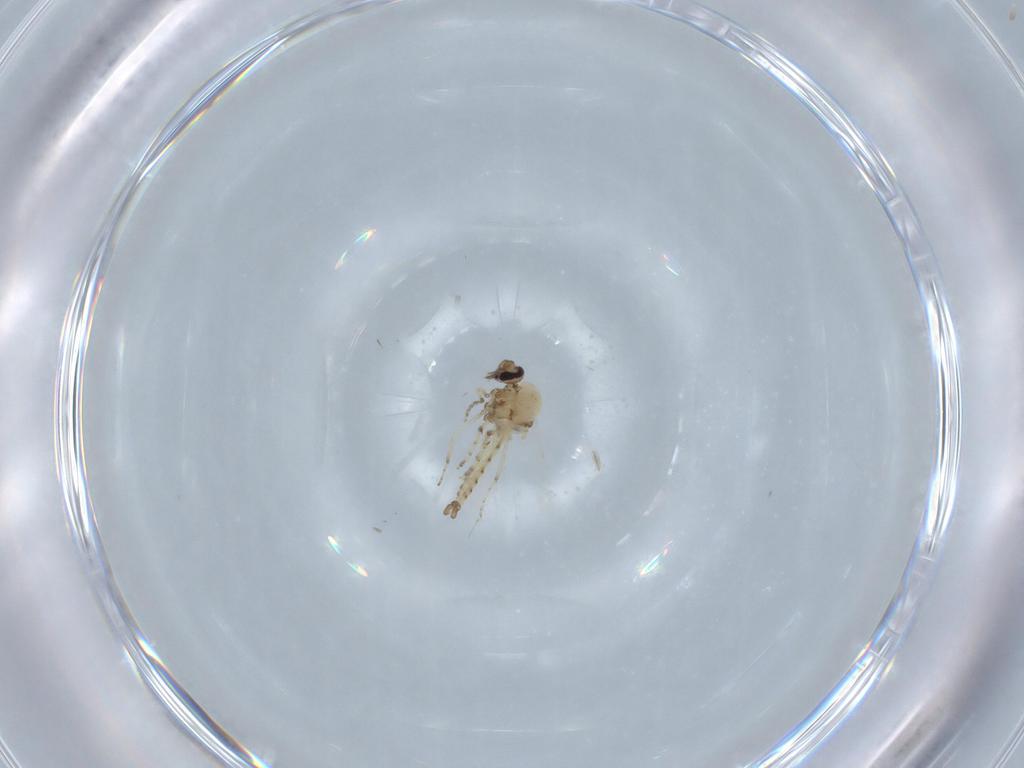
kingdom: Animalia
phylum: Arthropoda
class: Insecta
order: Diptera
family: Ceratopogonidae
